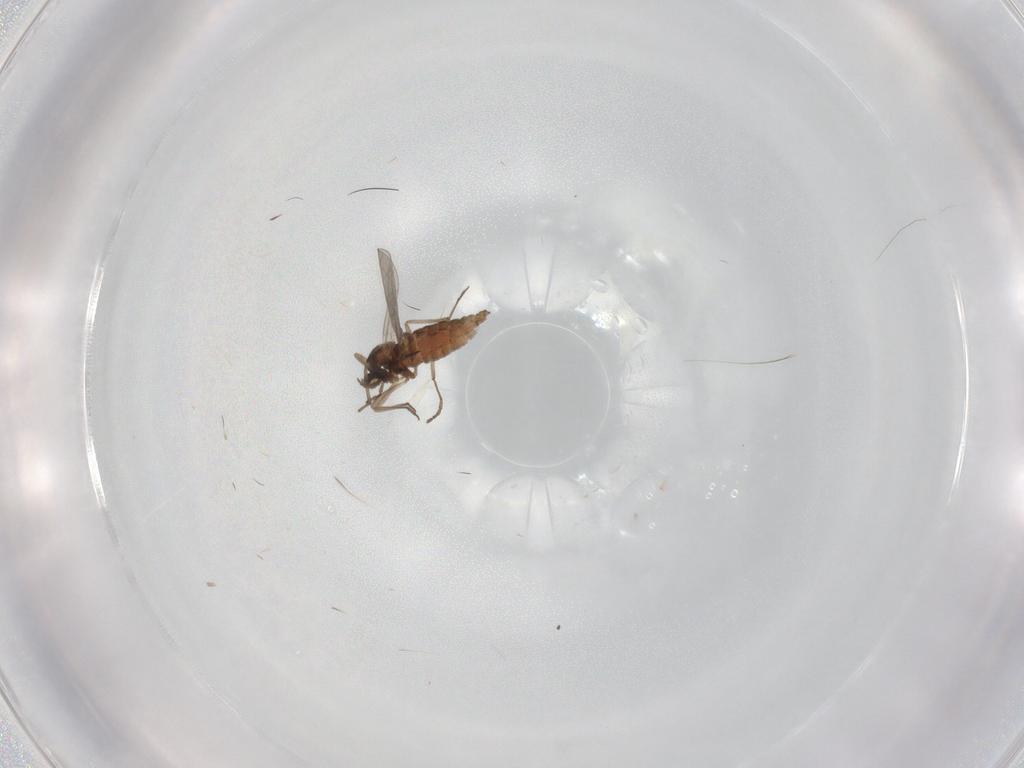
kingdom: Animalia
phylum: Arthropoda
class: Insecta
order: Diptera
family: Cecidomyiidae
